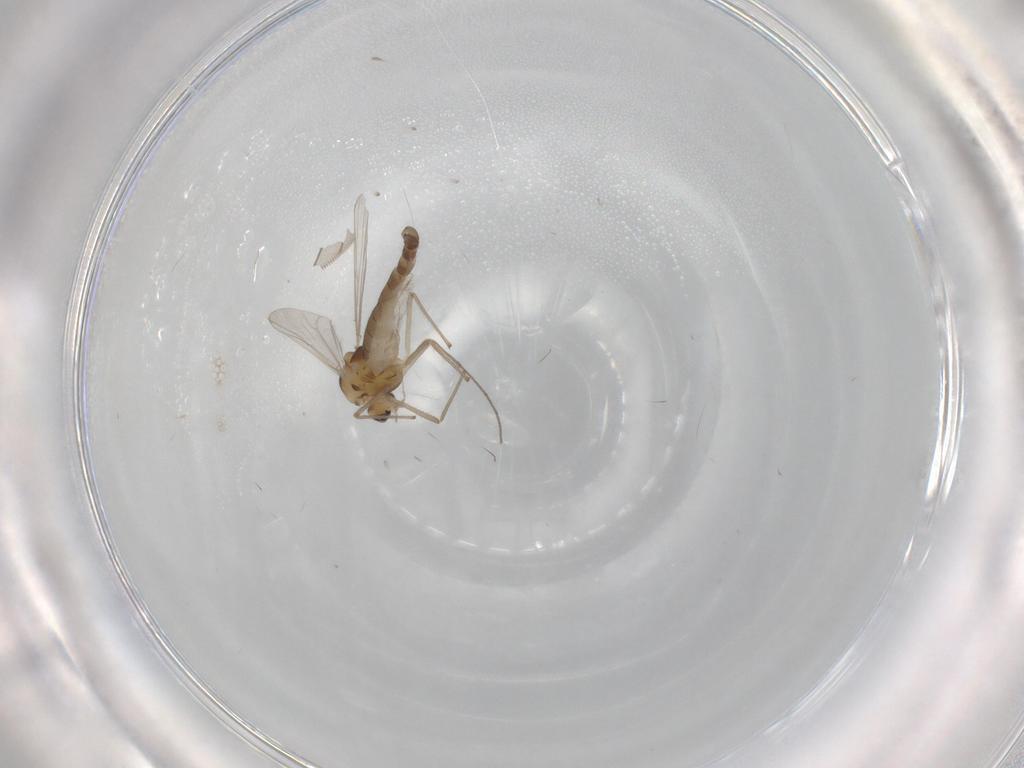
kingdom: Animalia
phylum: Arthropoda
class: Insecta
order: Diptera
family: Chironomidae
